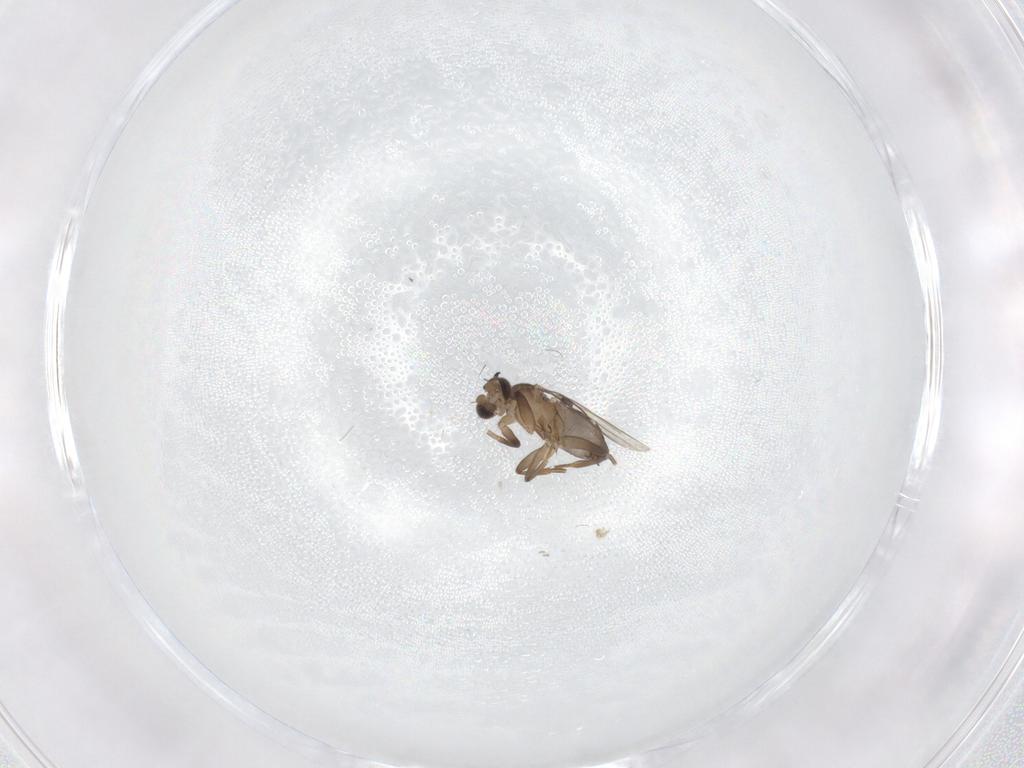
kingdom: Animalia
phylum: Arthropoda
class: Insecta
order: Diptera
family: Phoridae
